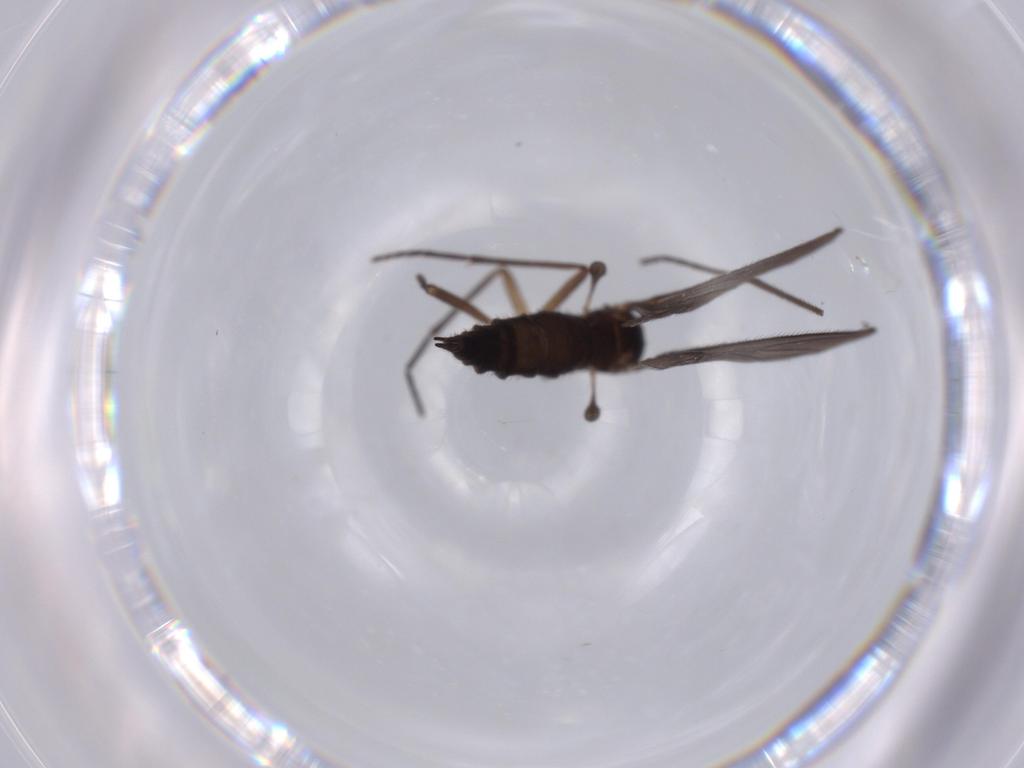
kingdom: Animalia
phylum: Arthropoda
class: Insecta
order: Diptera
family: Sciaridae
